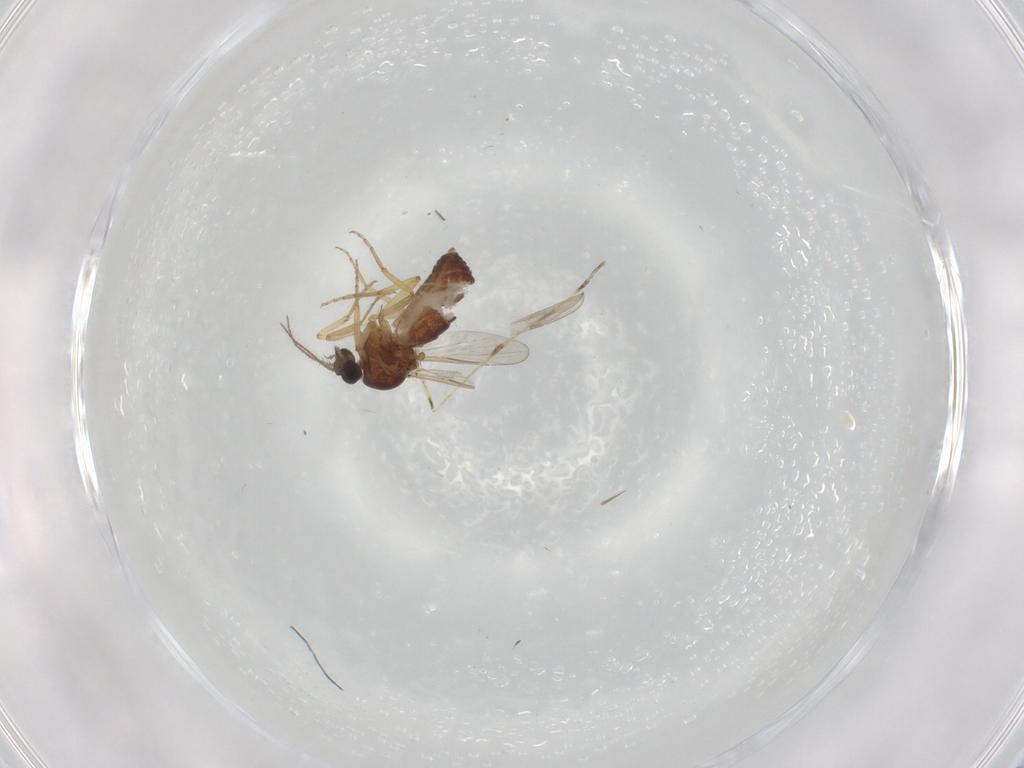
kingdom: Animalia
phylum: Arthropoda
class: Insecta
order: Diptera
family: Ceratopogonidae
